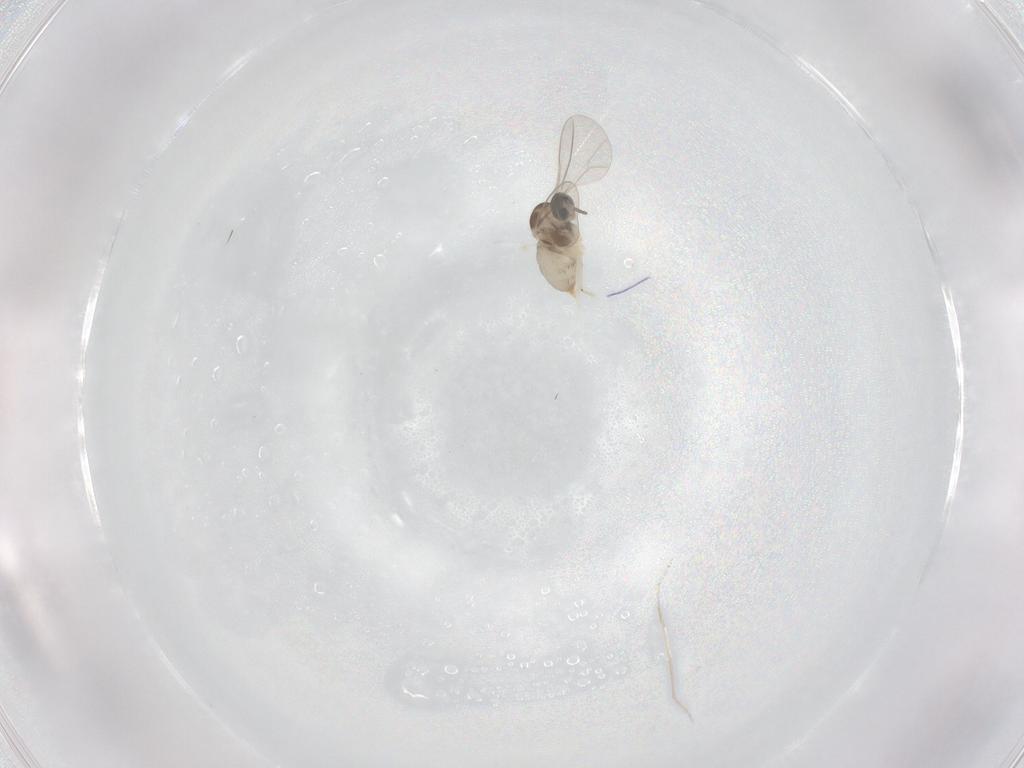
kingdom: Animalia
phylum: Arthropoda
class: Insecta
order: Diptera
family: Cecidomyiidae
